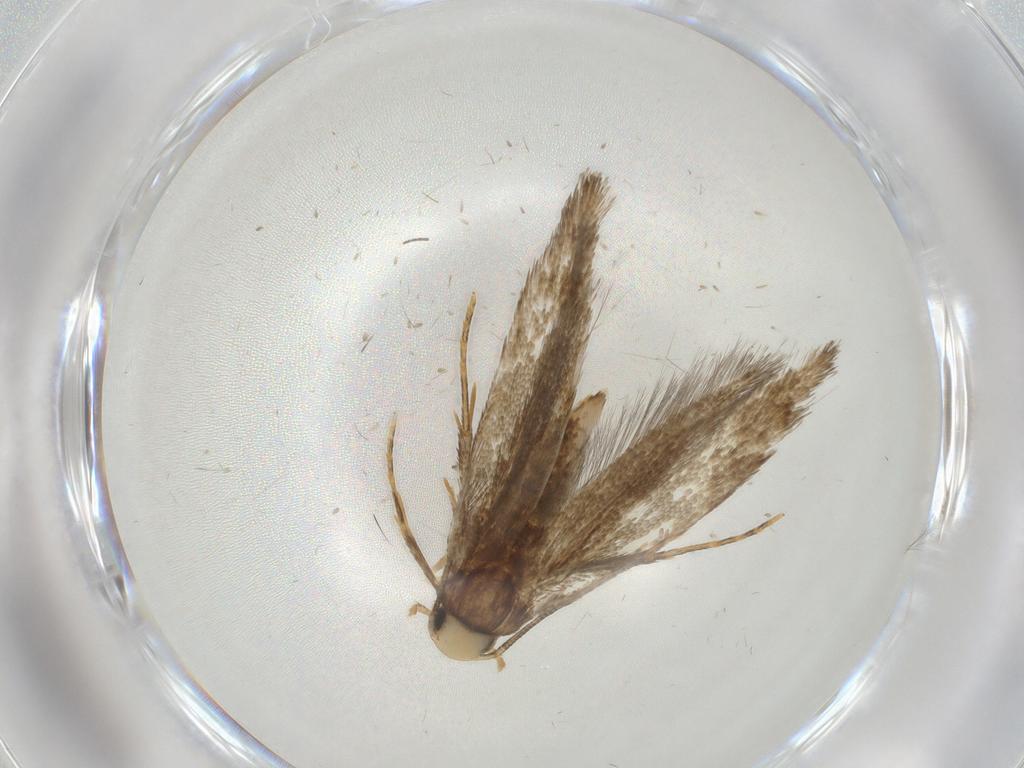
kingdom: Animalia
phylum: Arthropoda
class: Insecta
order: Lepidoptera
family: Tineidae
